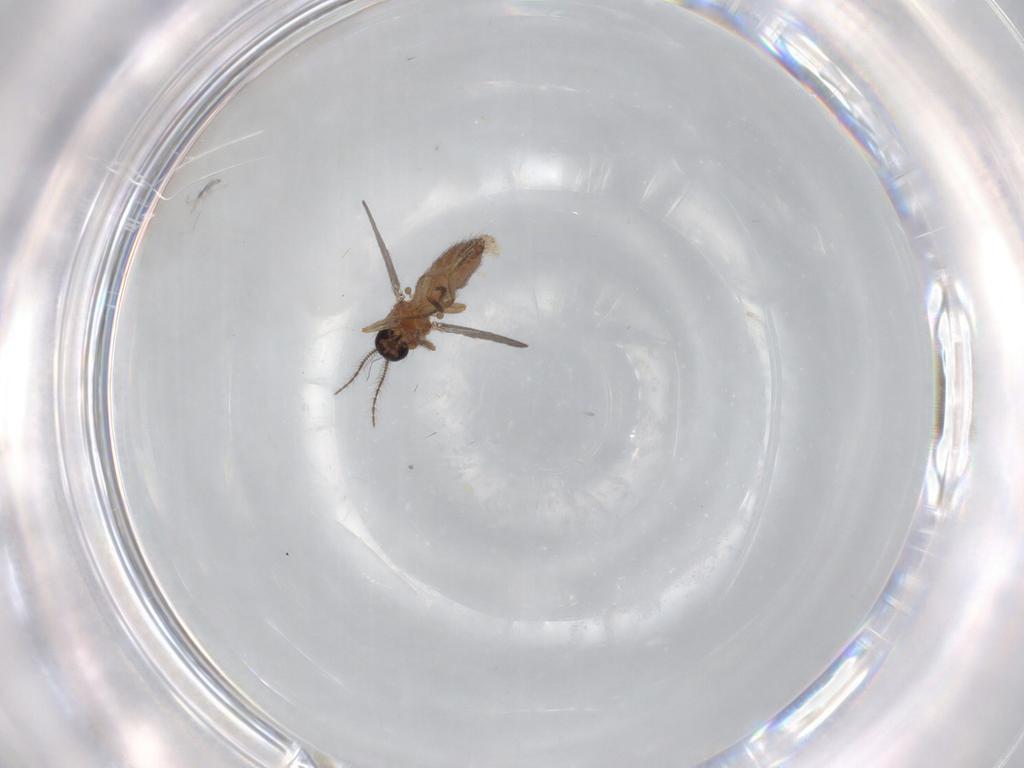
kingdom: Animalia
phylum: Arthropoda
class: Insecta
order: Diptera
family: Ceratopogonidae
